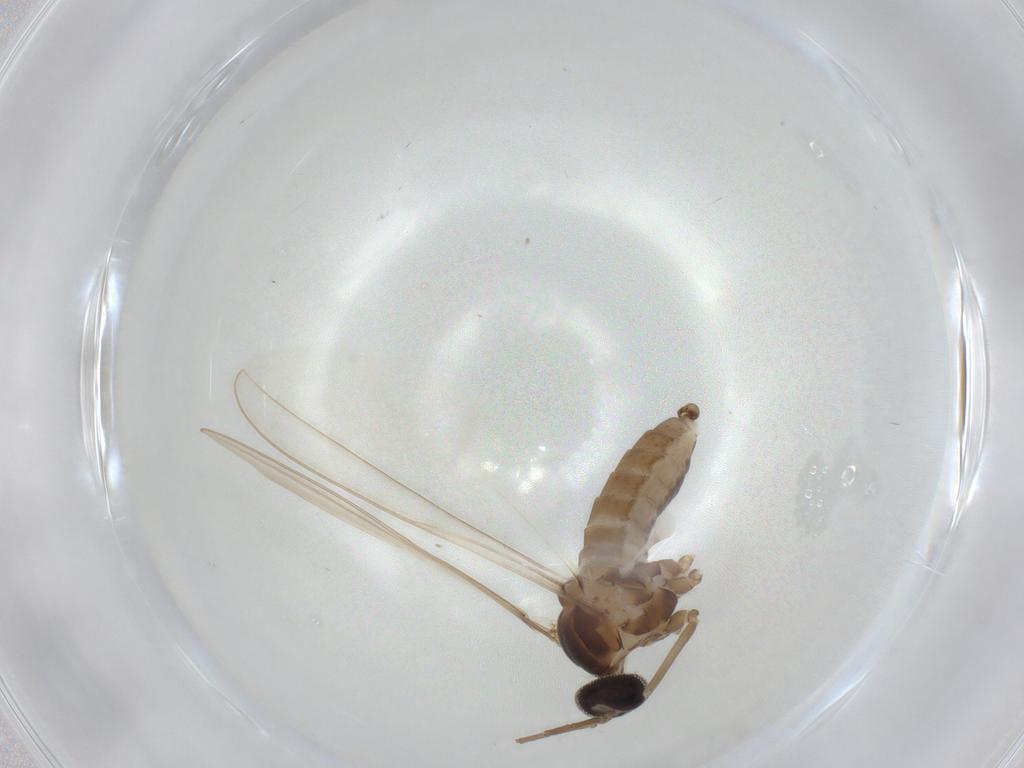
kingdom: Animalia
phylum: Arthropoda
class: Insecta
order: Diptera
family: Cecidomyiidae
